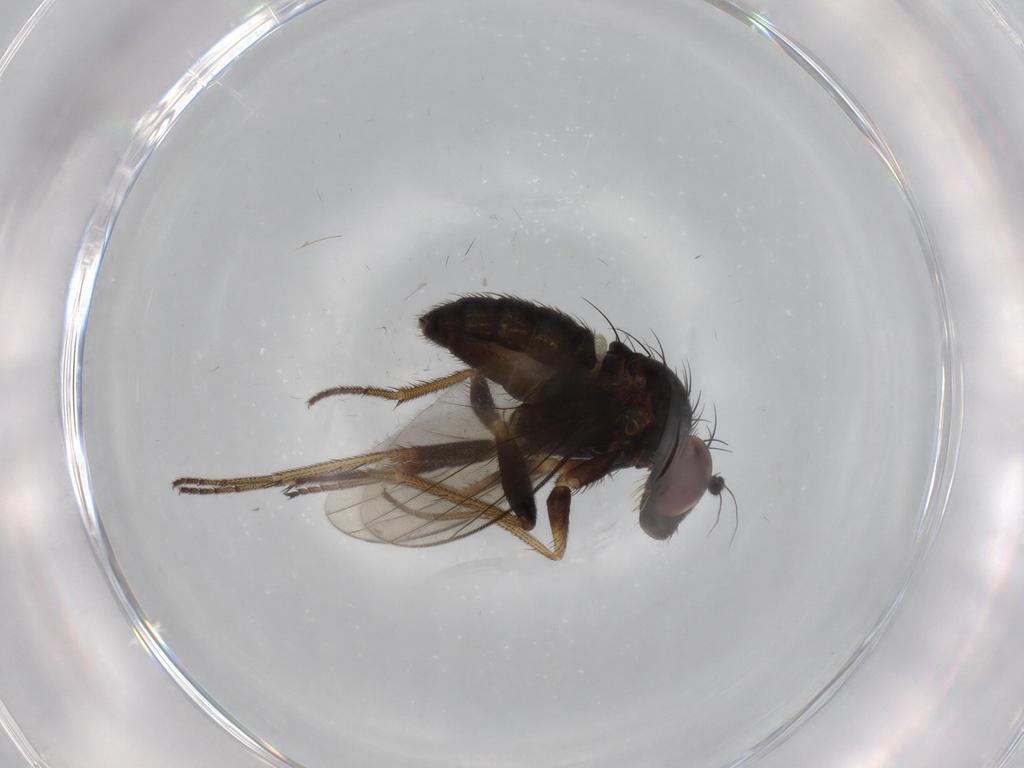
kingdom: Animalia
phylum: Arthropoda
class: Insecta
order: Diptera
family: Dolichopodidae
